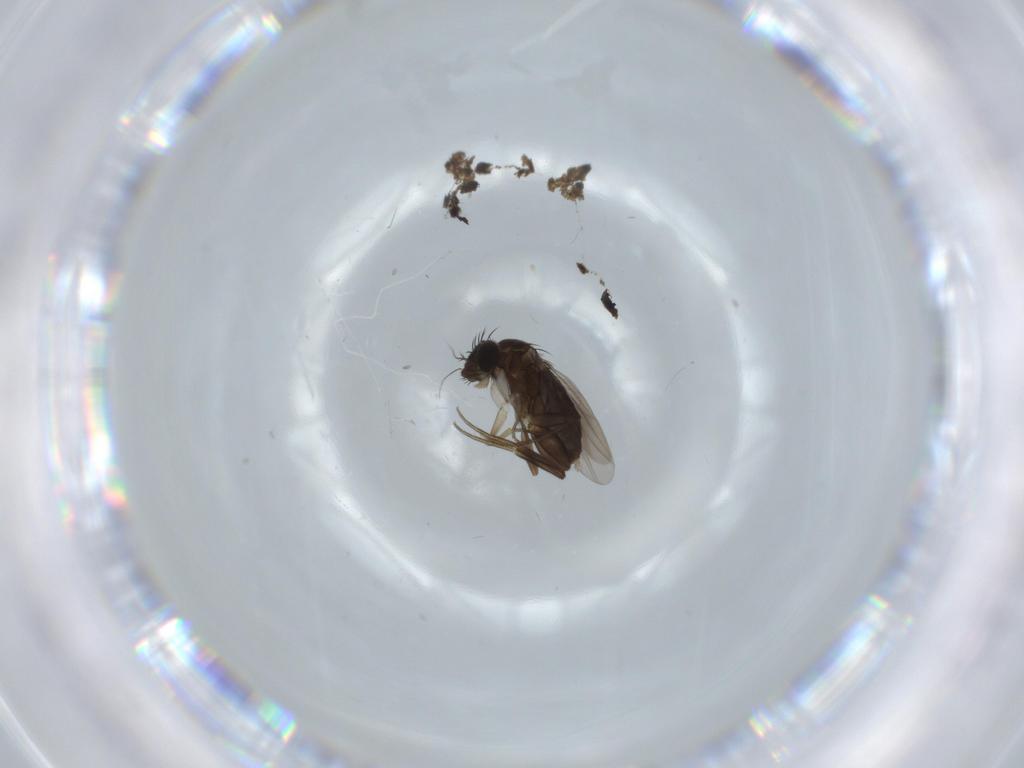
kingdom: Animalia
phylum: Arthropoda
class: Insecta
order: Diptera
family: Phoridae
